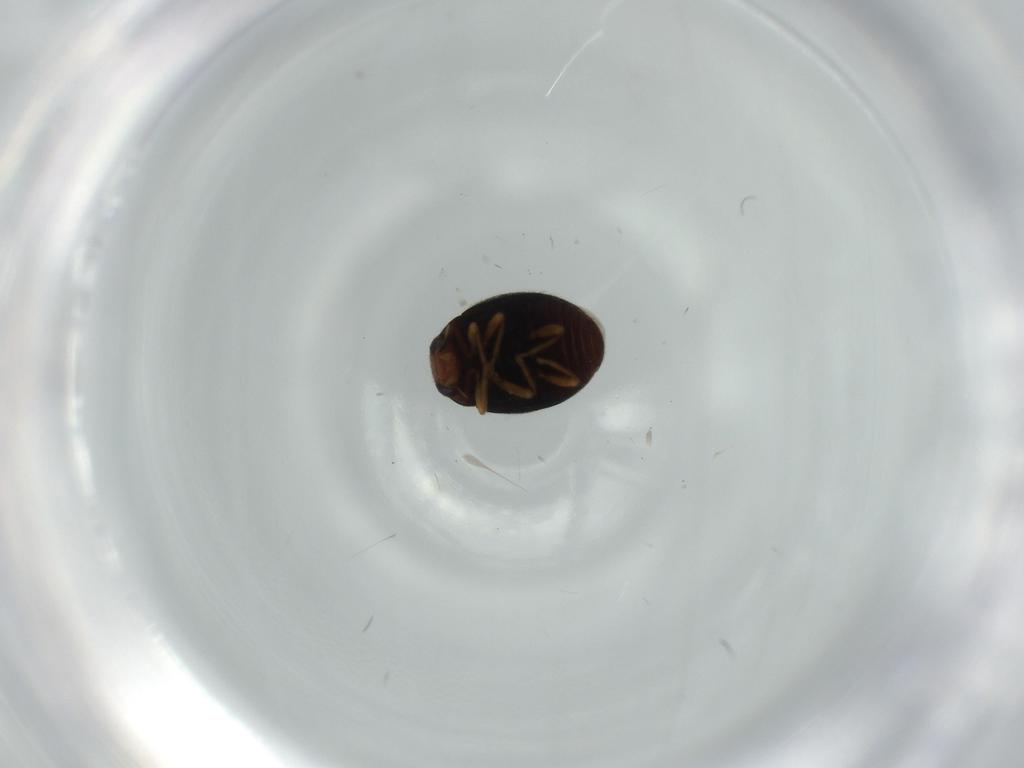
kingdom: Animalia
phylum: Arthropoda
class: Insecta
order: Coleoptera
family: Coccinellidae
